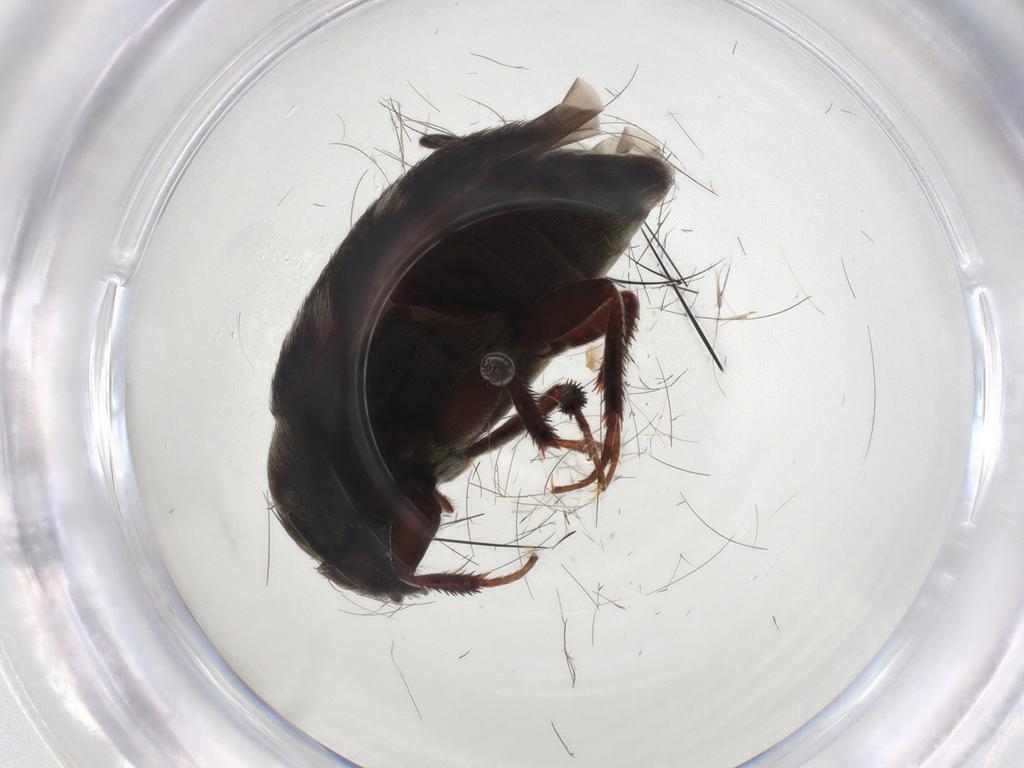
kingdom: Animalia
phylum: Arthropoda
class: Insecta
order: Coleoptera
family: Dermestidae
